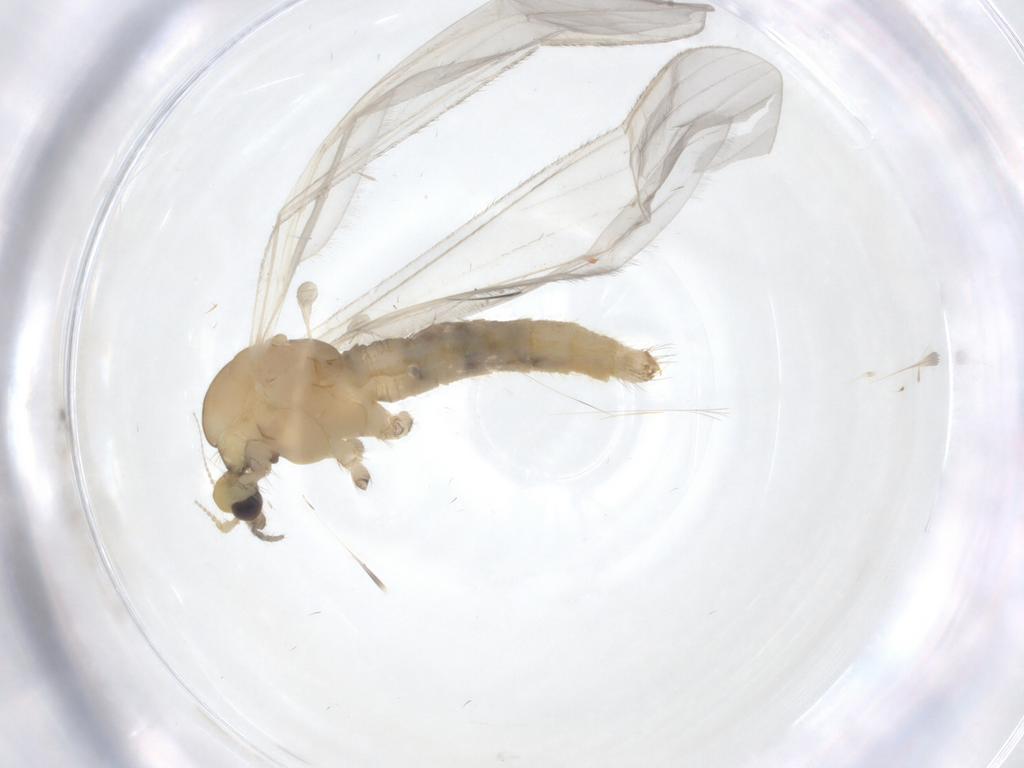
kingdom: Animalia
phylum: Arthropoda
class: Insecta
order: Diptera
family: Limoniidae
